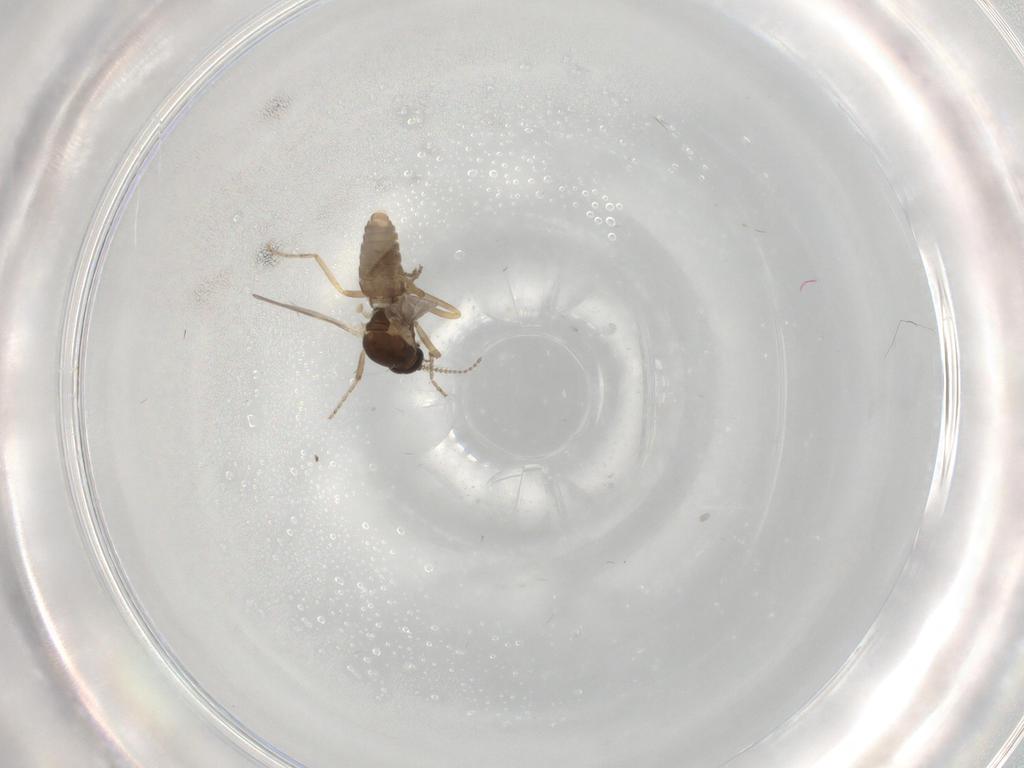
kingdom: Animalia
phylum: Arthropoda
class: Insecta
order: Diptera
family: Ceratopogonidae
